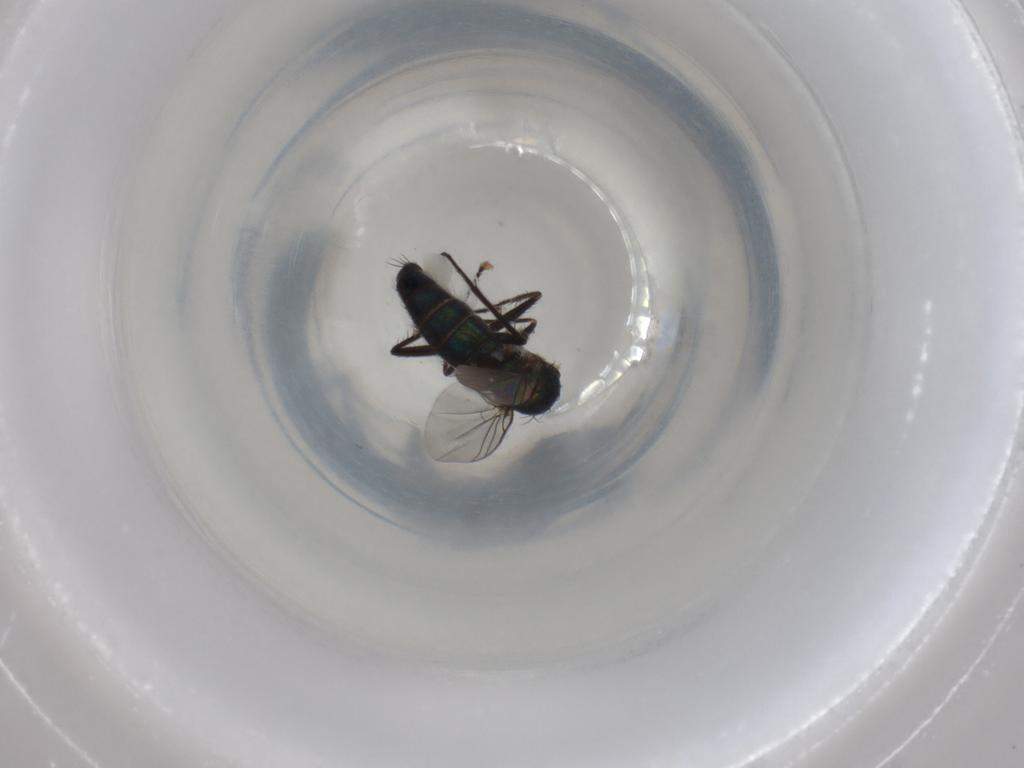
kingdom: Animalia
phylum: Arthropoda
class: Insecta
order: Diptera
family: Dolichopodidae
